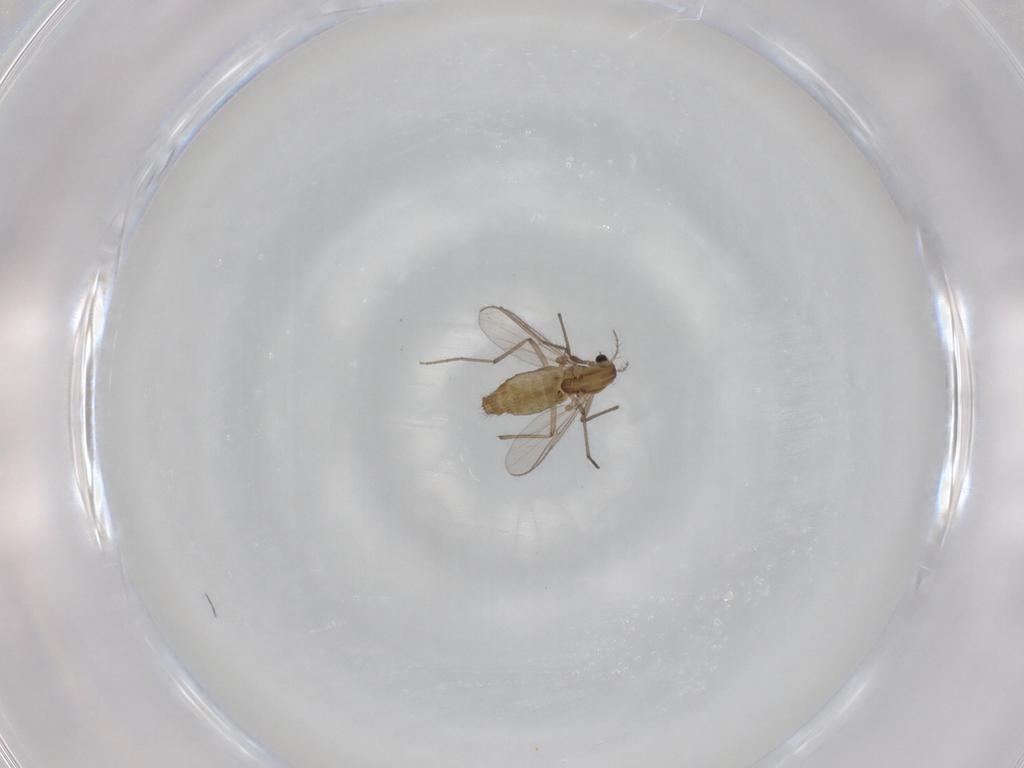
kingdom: Animalia
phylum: Arthropoda
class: Insecta
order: Diptera
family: Chironomidae
